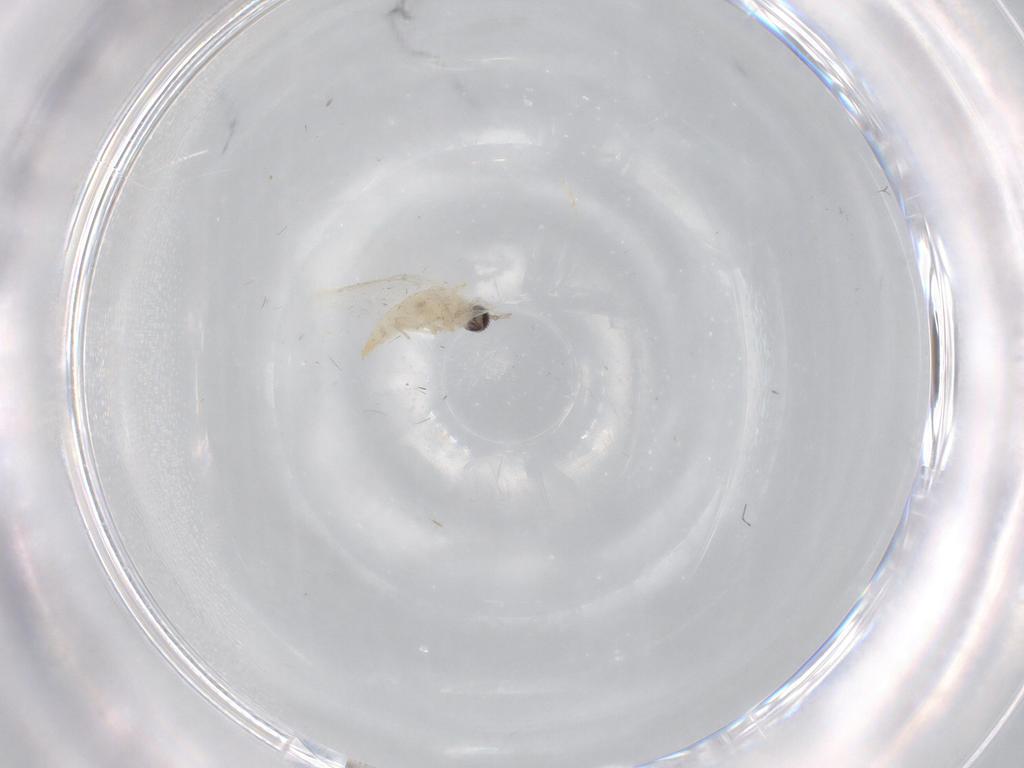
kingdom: Animalia
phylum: Arthropoda
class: Insecta
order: Diptera
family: Cecidomyiidae
